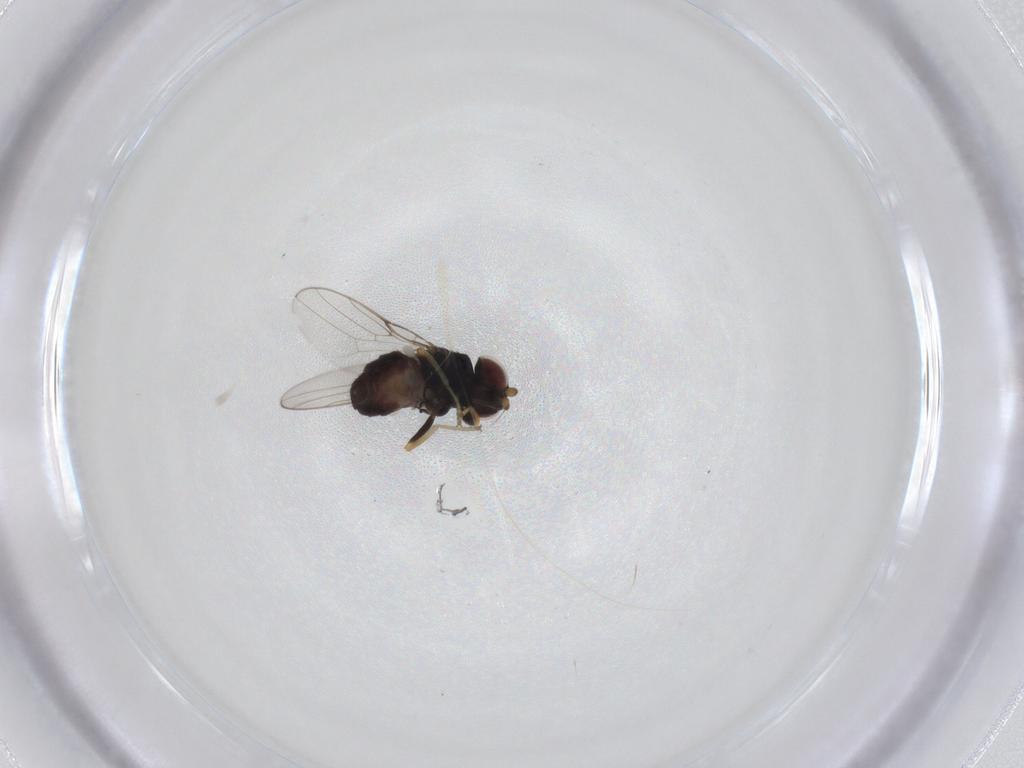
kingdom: Animalia
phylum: Arthropoda
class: Insecta
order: Diptera
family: Chloropidae
